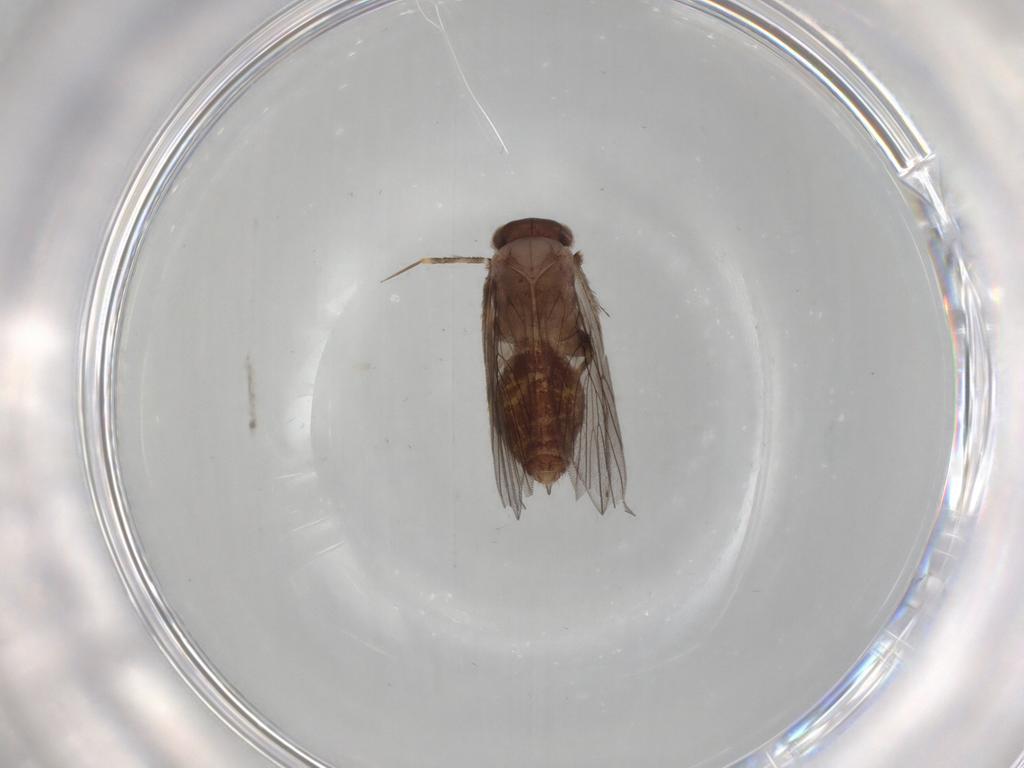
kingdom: Animalia
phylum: Arthropoda
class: Insecta
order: Psocodea
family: Lepidopsocidae
